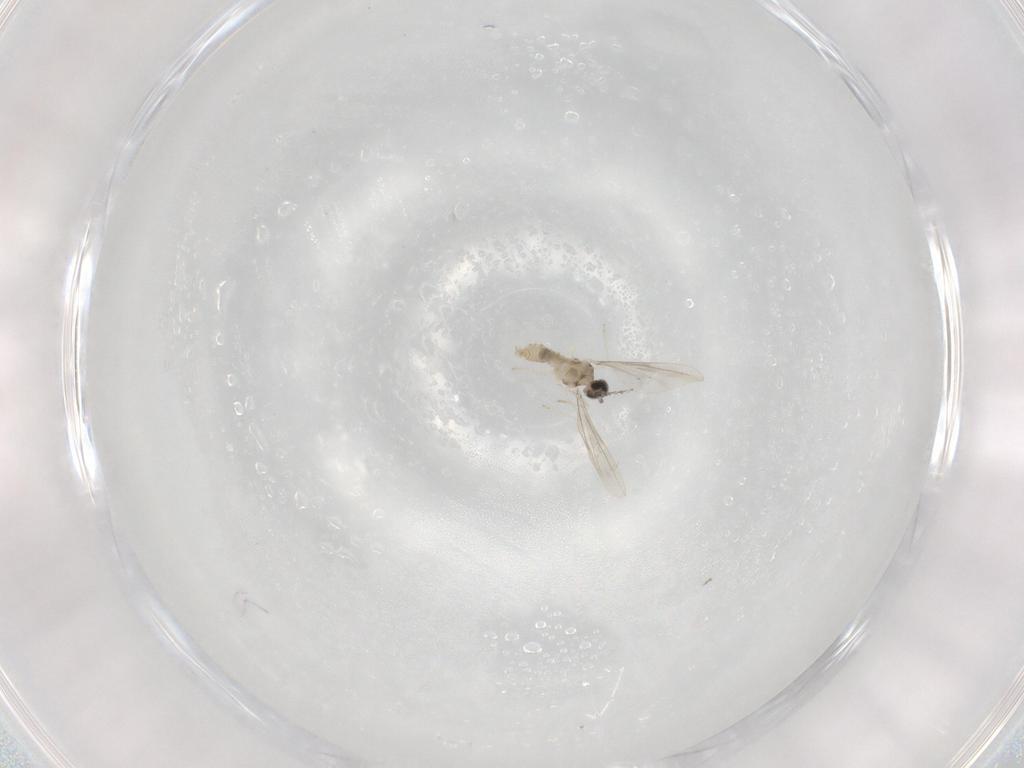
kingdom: Animalia
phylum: Arthropoda
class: Insecta
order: Diptera
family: Cecidomyiidae
